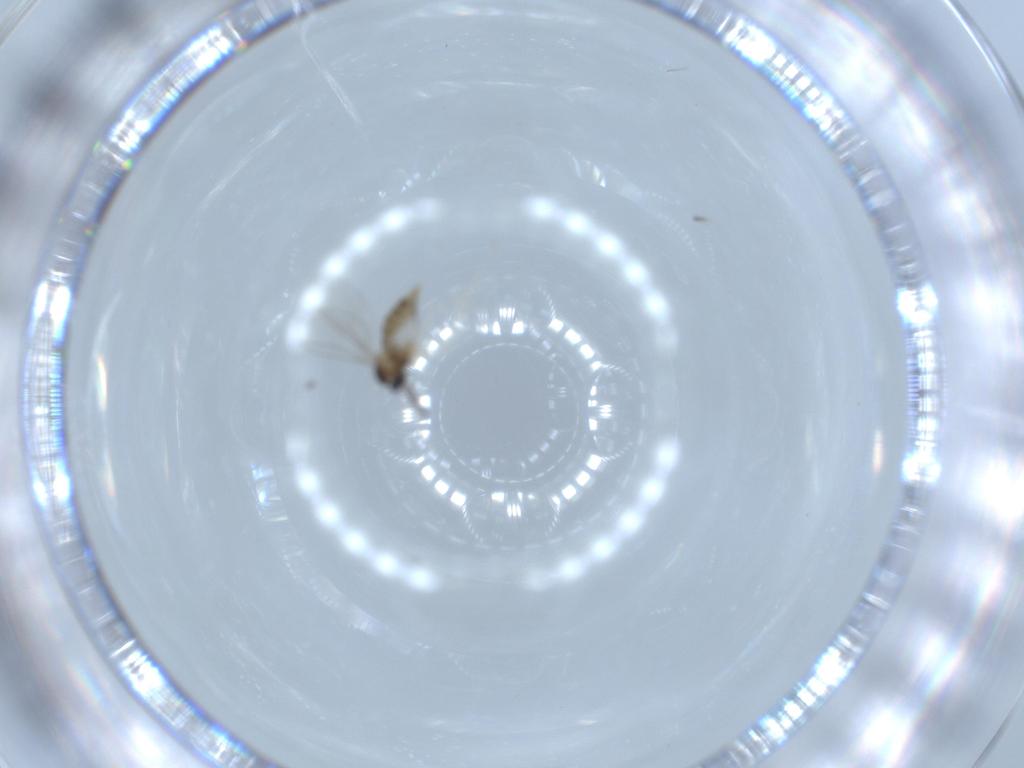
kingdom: Animalia
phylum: Arthropoda
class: Insecta
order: Diptera
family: Cecidomyiidae
